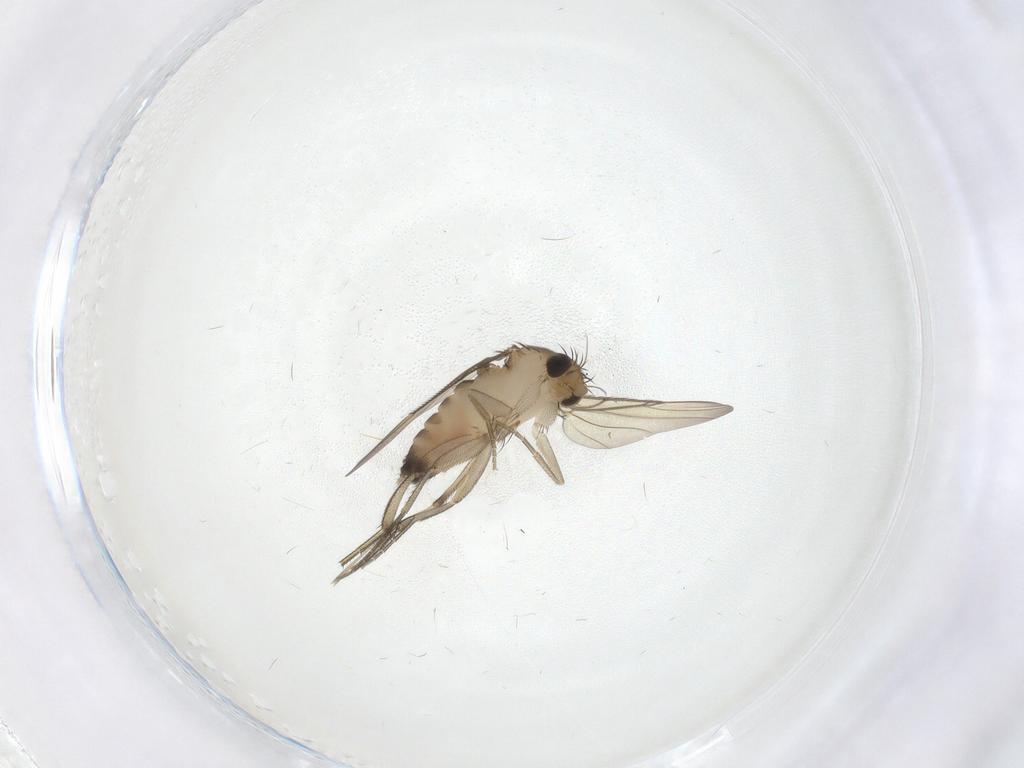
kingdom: Animalia
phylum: Arthropoda
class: Insecta
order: Diptera
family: Phoridae
